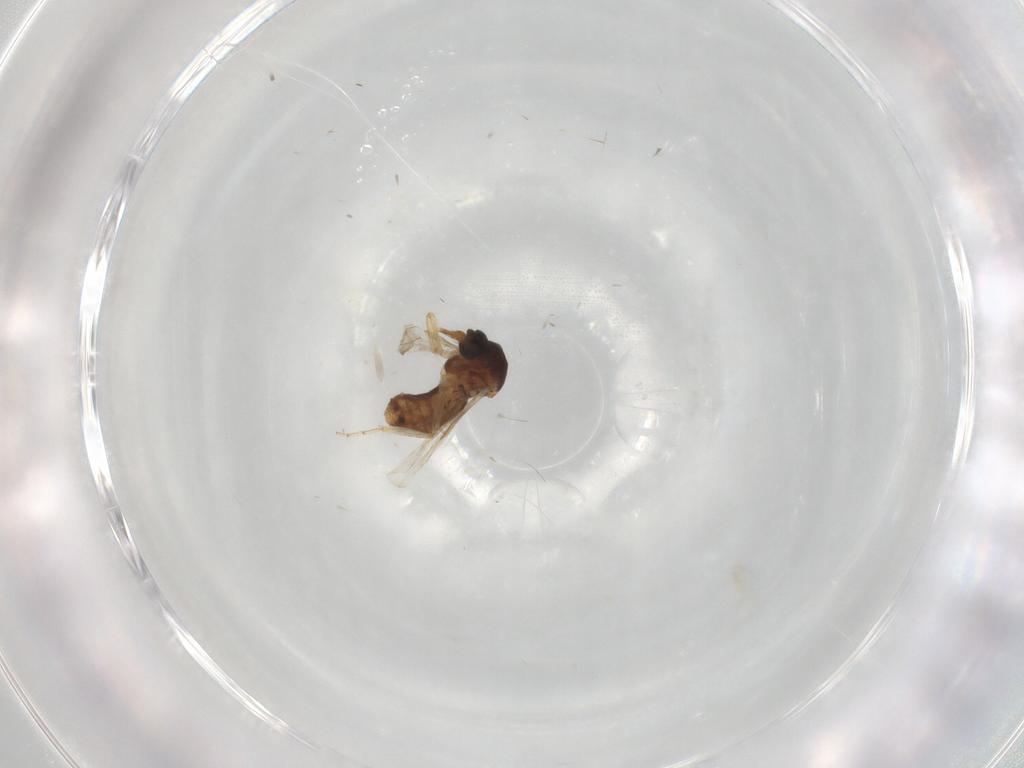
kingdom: Animalia
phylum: Arthropoda
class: Insecta
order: Diptera
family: Ceratopogonidae
